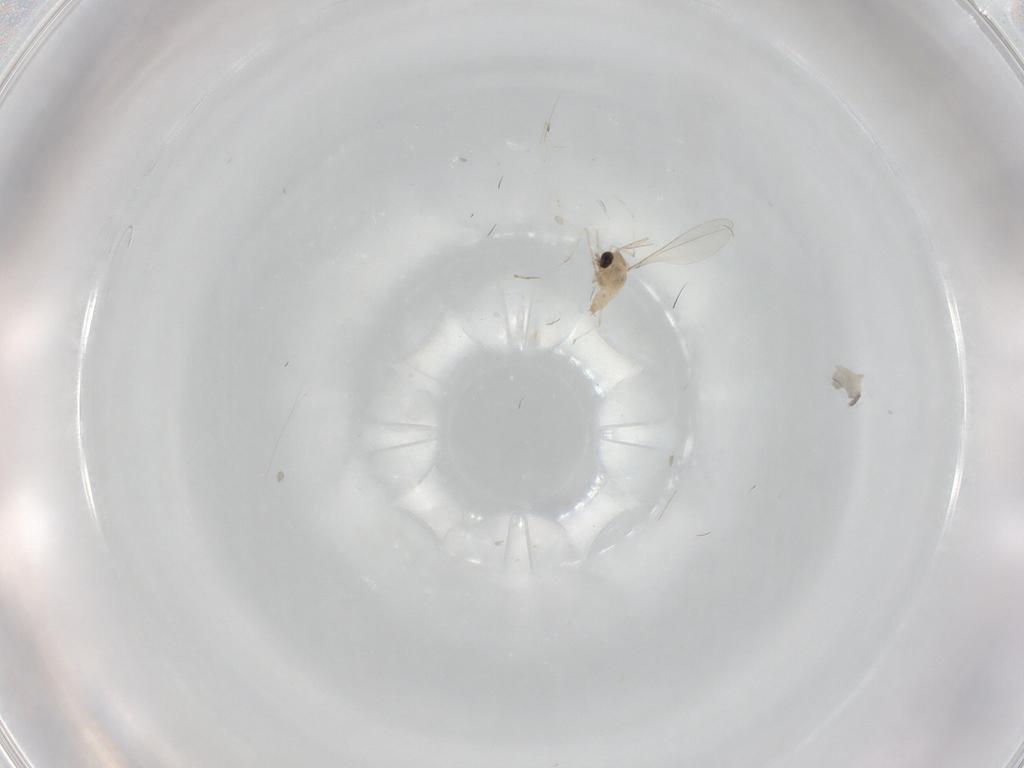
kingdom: Animalia
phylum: Arthropoda
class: Insecta
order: Diptera
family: Cecidomyiidae
